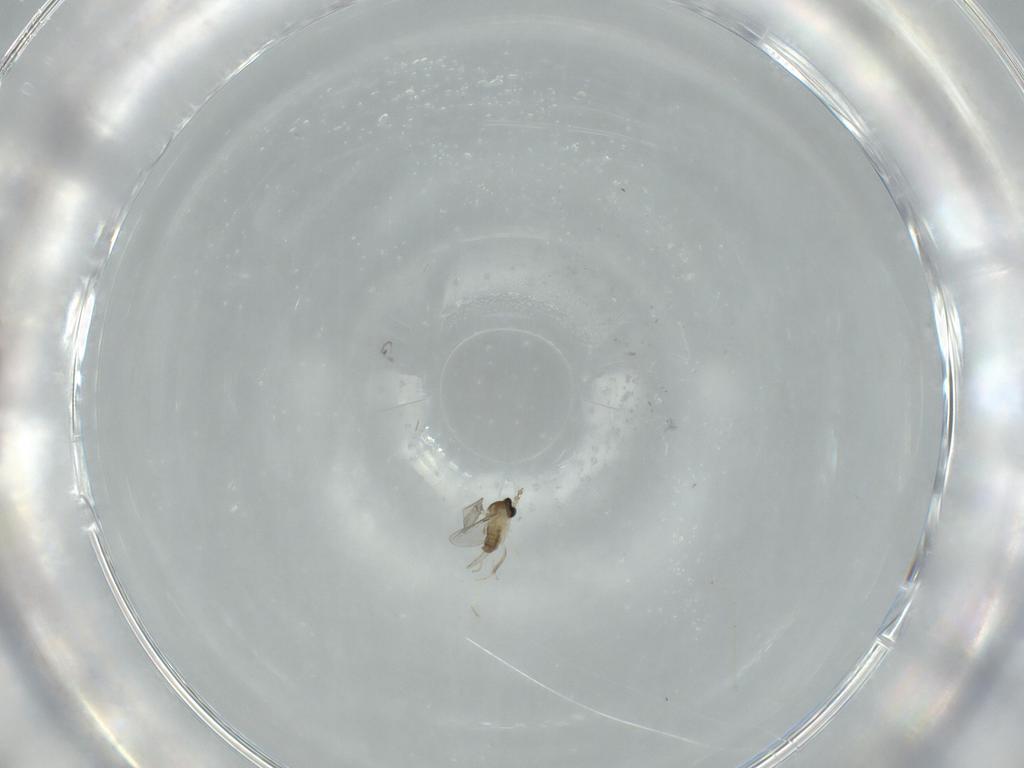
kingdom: Animalia
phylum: Arthropoda
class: Insecta
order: Diptera
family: Cecidomyiidae
